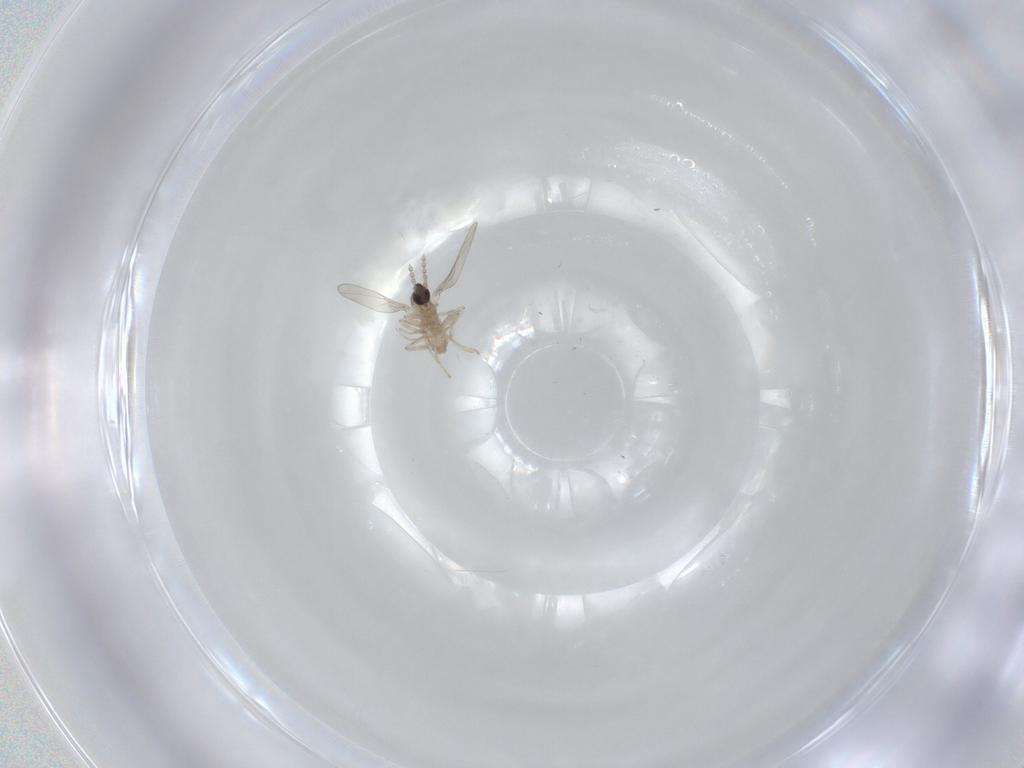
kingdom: Animalia
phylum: Arthropoda
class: Insecta
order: Diptera
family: Cecidomyiidae
